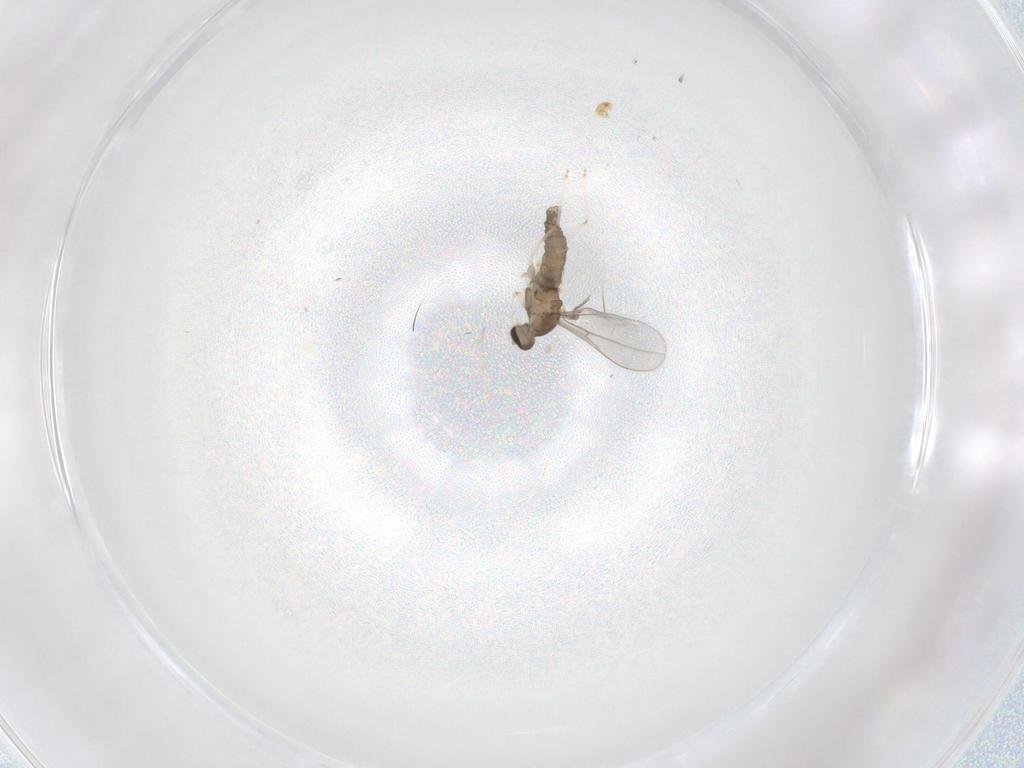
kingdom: Animalia
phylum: Arthropoda
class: Insecta
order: Diptera
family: Cecidomyiidae
